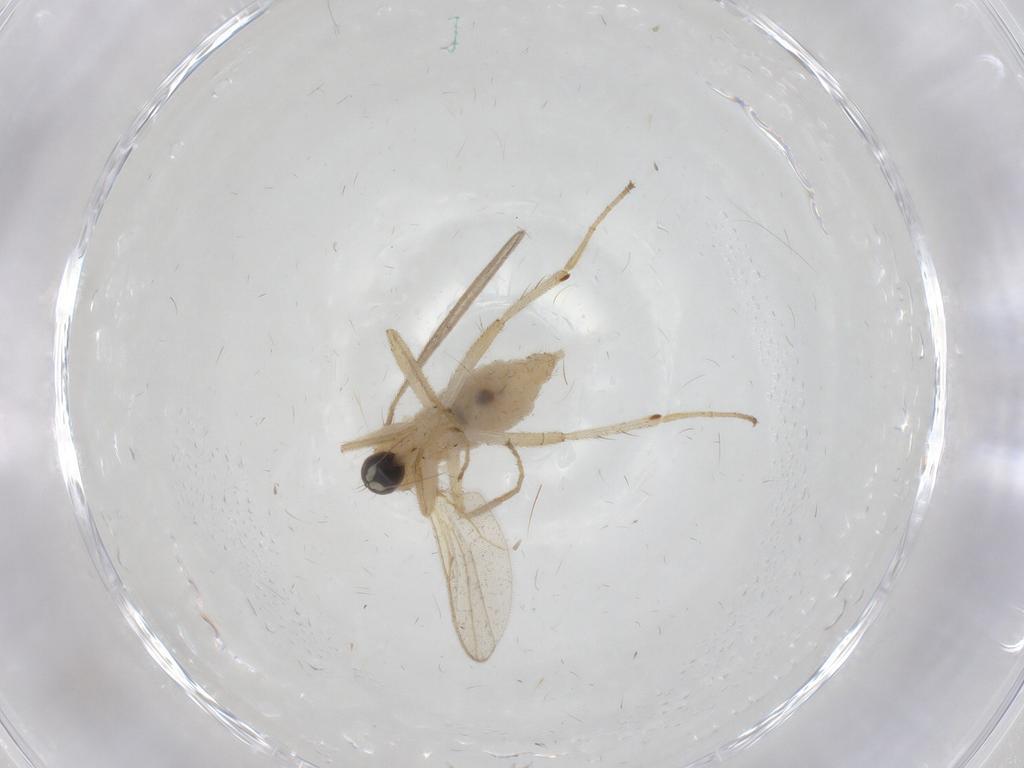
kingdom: Animalia
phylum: Arthropoda
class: Insecta
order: Diptera
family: Hybotidae
